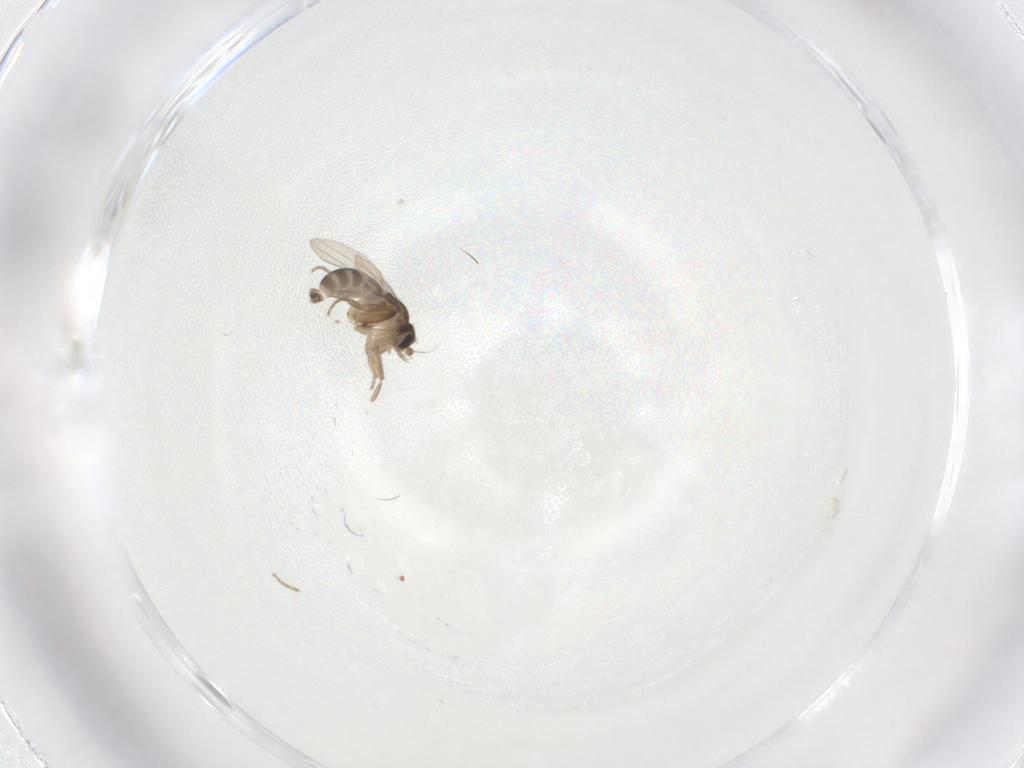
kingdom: Animalia
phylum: Arthropoda
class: Insecta
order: Diptera
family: Phoridae
